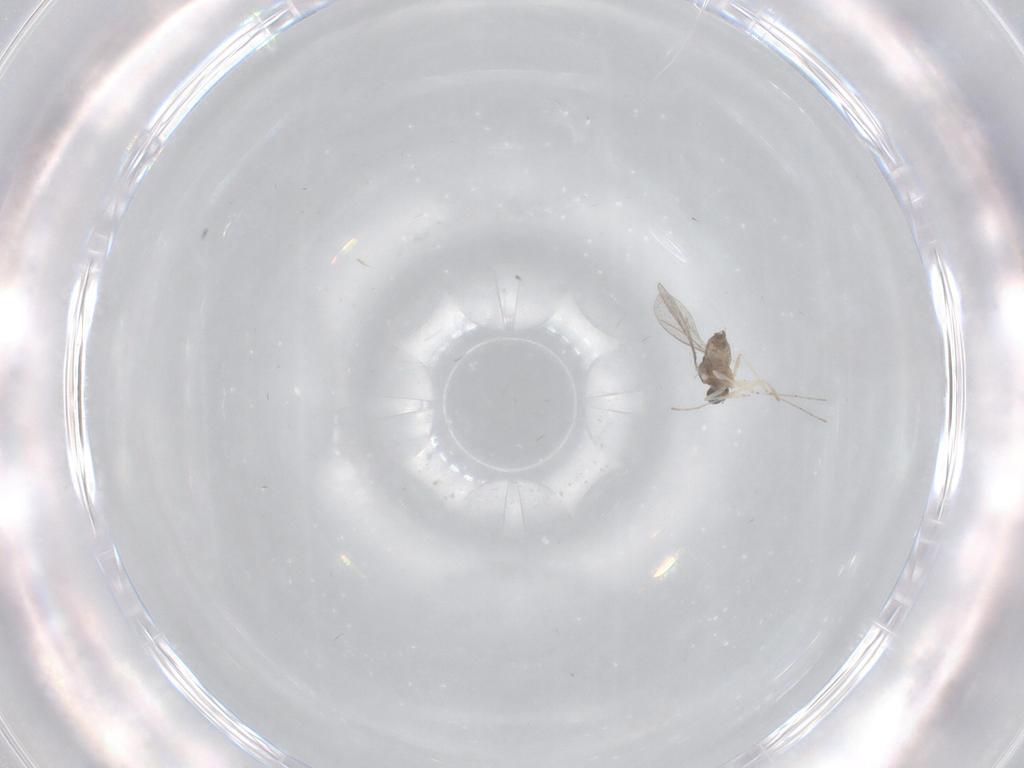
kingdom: Animalia
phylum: Arthropoda
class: Insecta
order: Diptera
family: Cecidomyiidae
